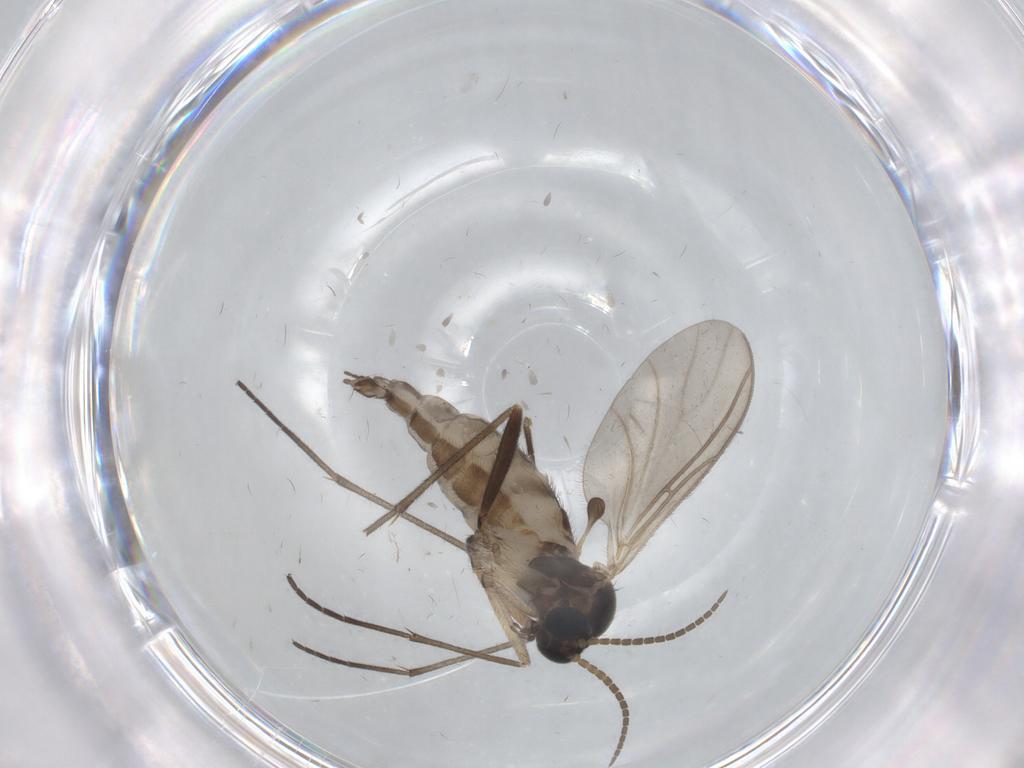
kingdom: Animalia
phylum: Arthropoda
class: Insecta
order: Diptera
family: Sciaridae
